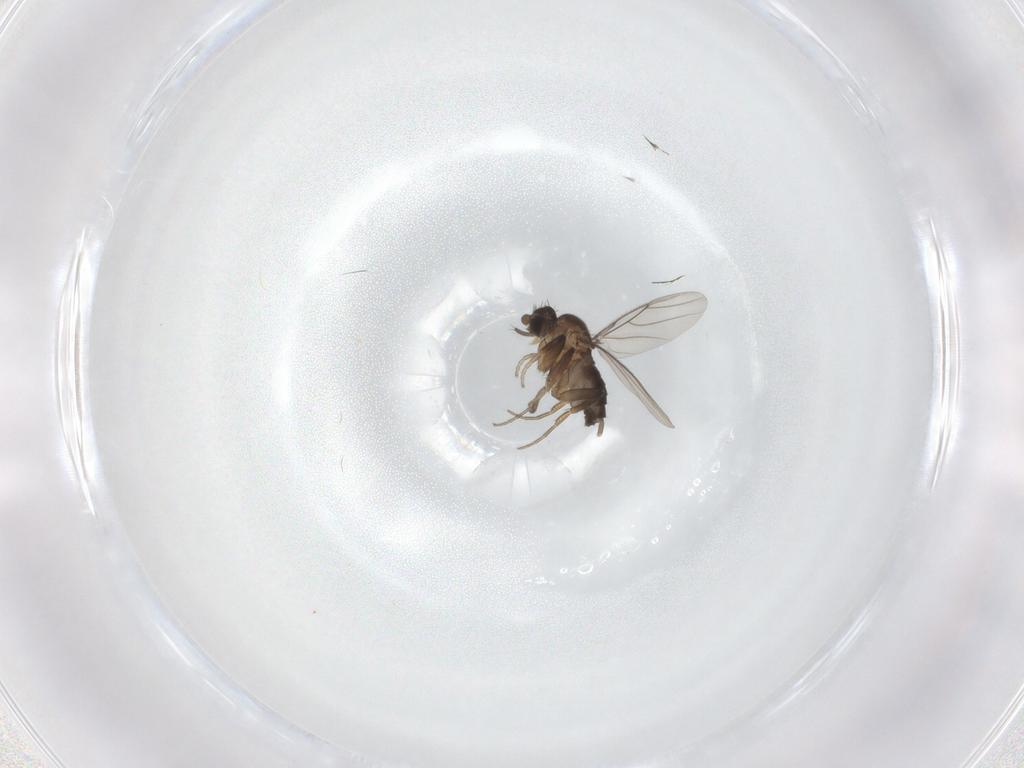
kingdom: Animalia
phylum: Arthropoda
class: Insecta
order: Diptera
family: Phoridae
